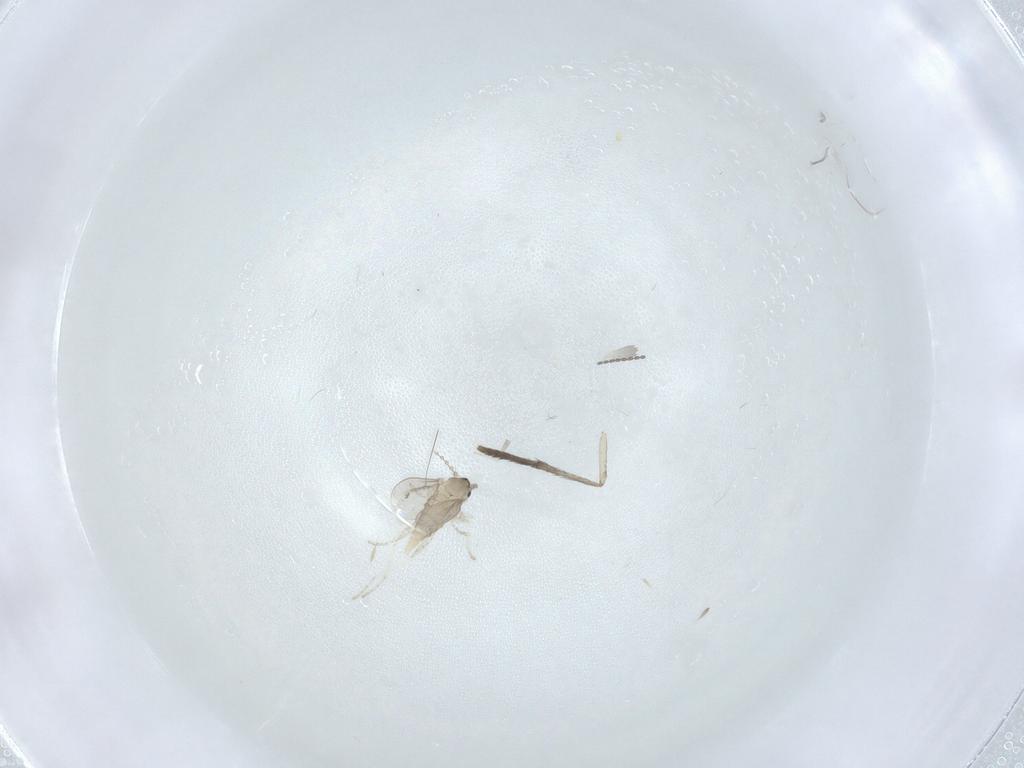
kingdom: Animalia
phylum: Arthropoda
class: Insecta
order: Diptera
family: Cecidomyiidae
